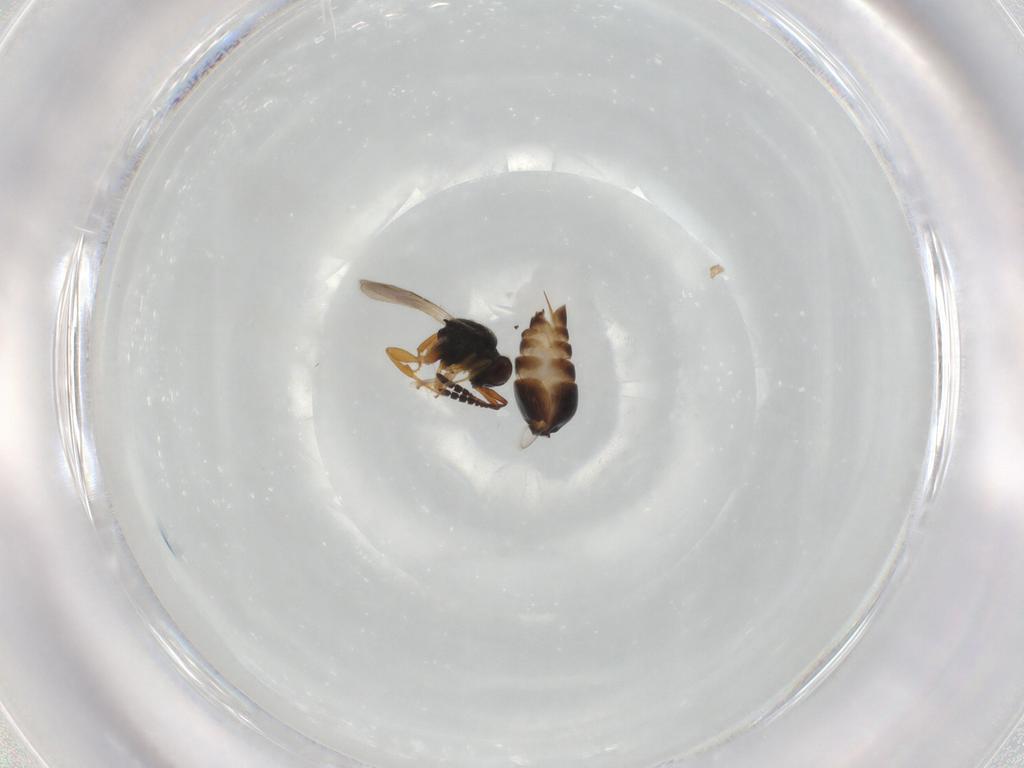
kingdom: Animalia
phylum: Arthropoda
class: Insecta
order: Hymenoptera
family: Ceraphronidae
